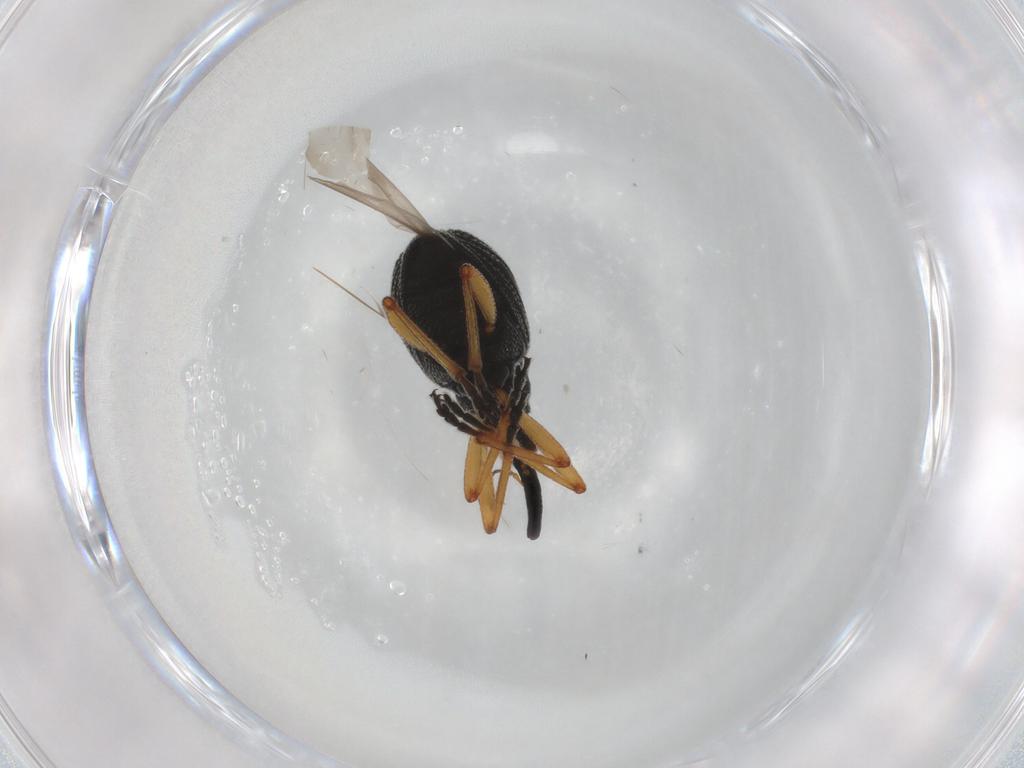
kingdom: Animalia
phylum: Arthropoda
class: Insecta
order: Coleoptera
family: Brentidae
